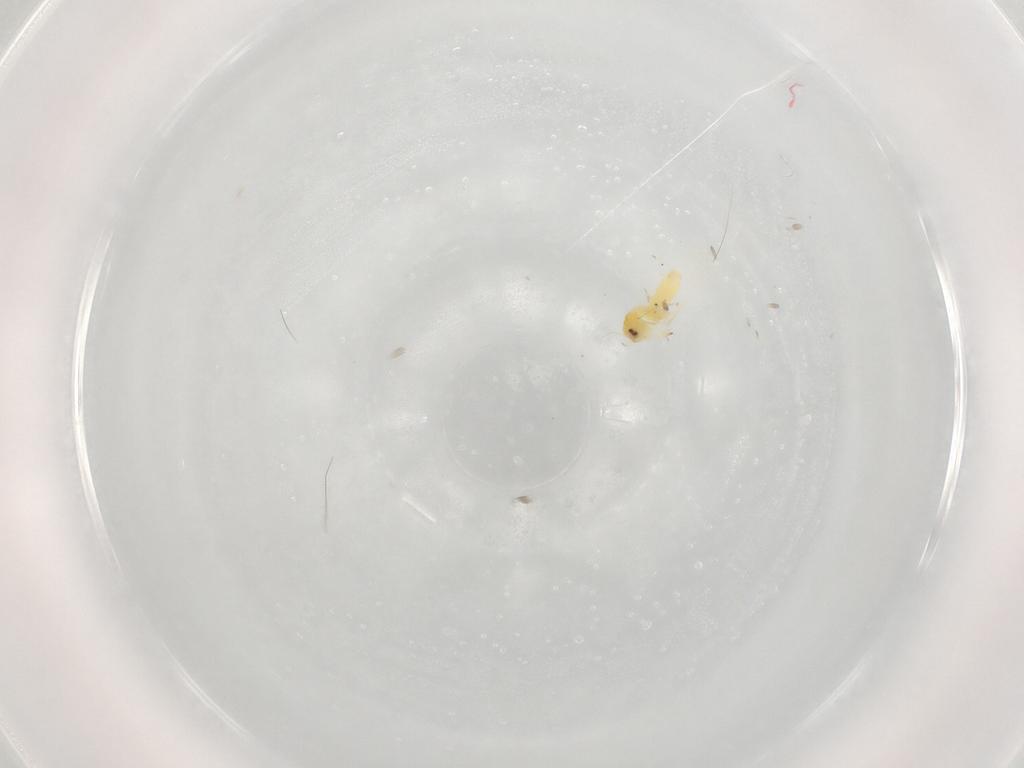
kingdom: Animalia
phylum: Arthropoda
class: Insecta
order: Hemiptera
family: Aleyrodidae
